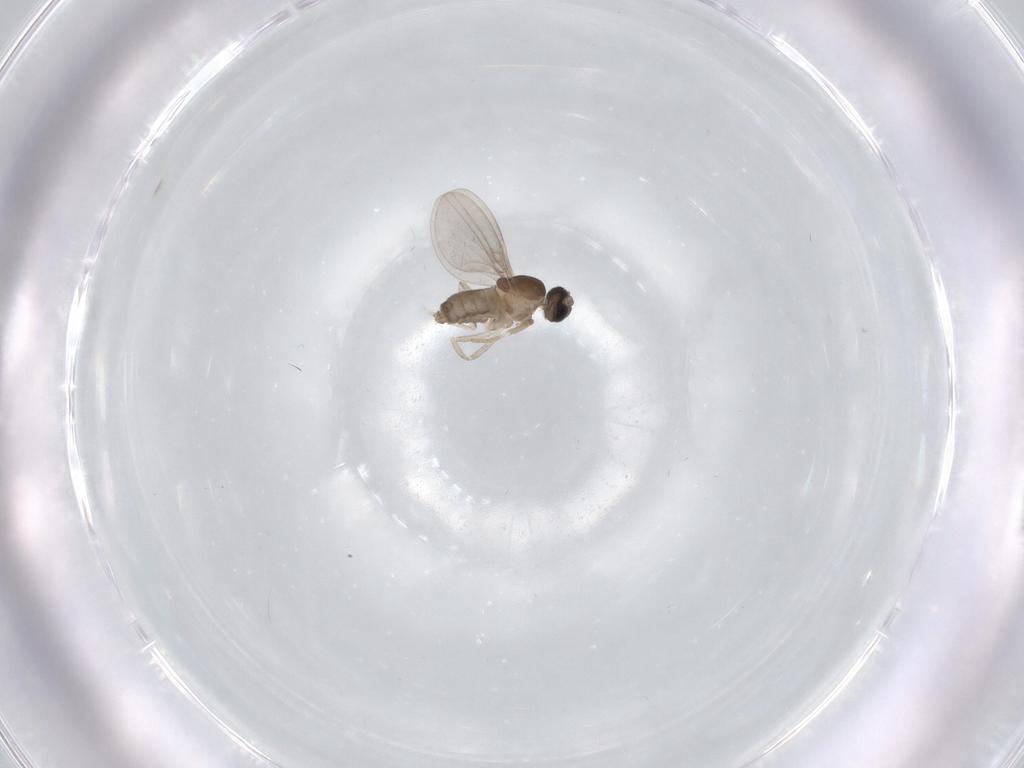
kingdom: Animalia
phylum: Arthropoda
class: Insecta
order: Diptera
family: Cecidomyiidae
